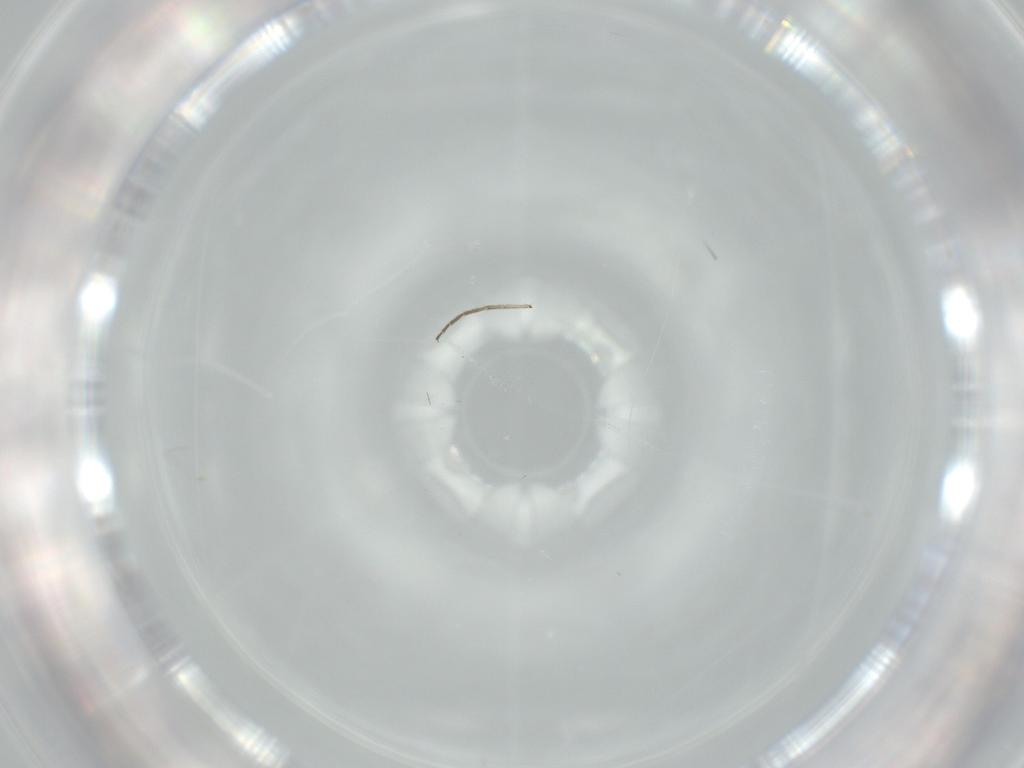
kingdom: Animalia
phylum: Arthropoda
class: Insecta
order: Diptera
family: Chironomidae
